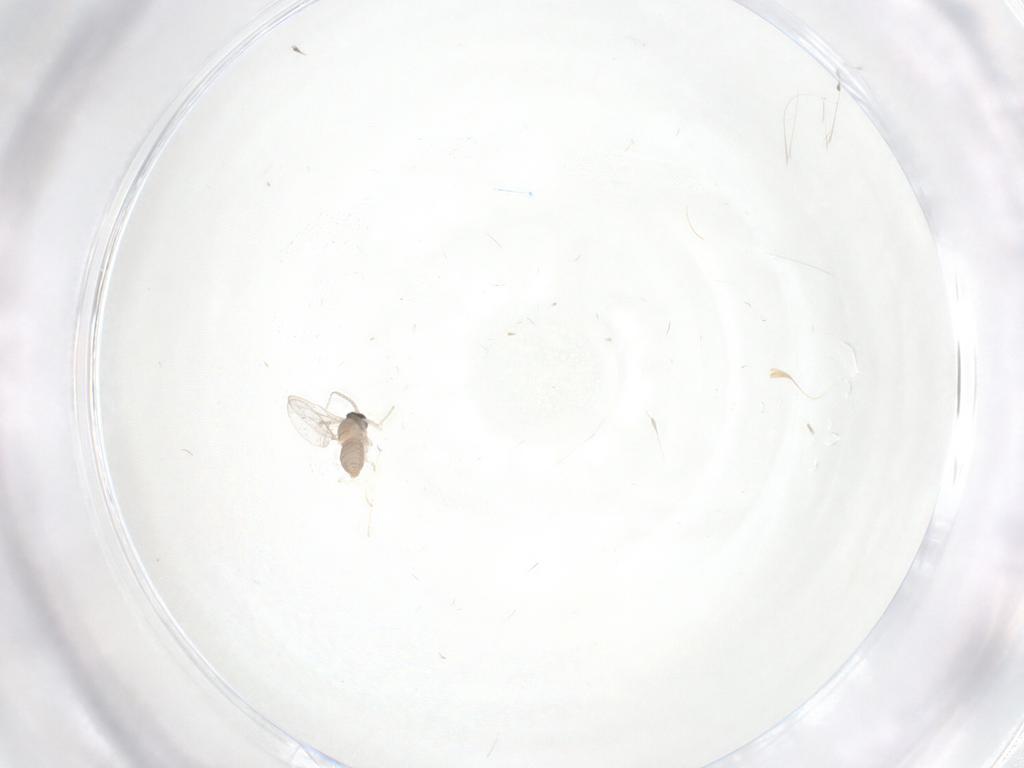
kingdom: Animalia
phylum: Arthropoda
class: Insecta
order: Diptera
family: Cecidomyiidae
